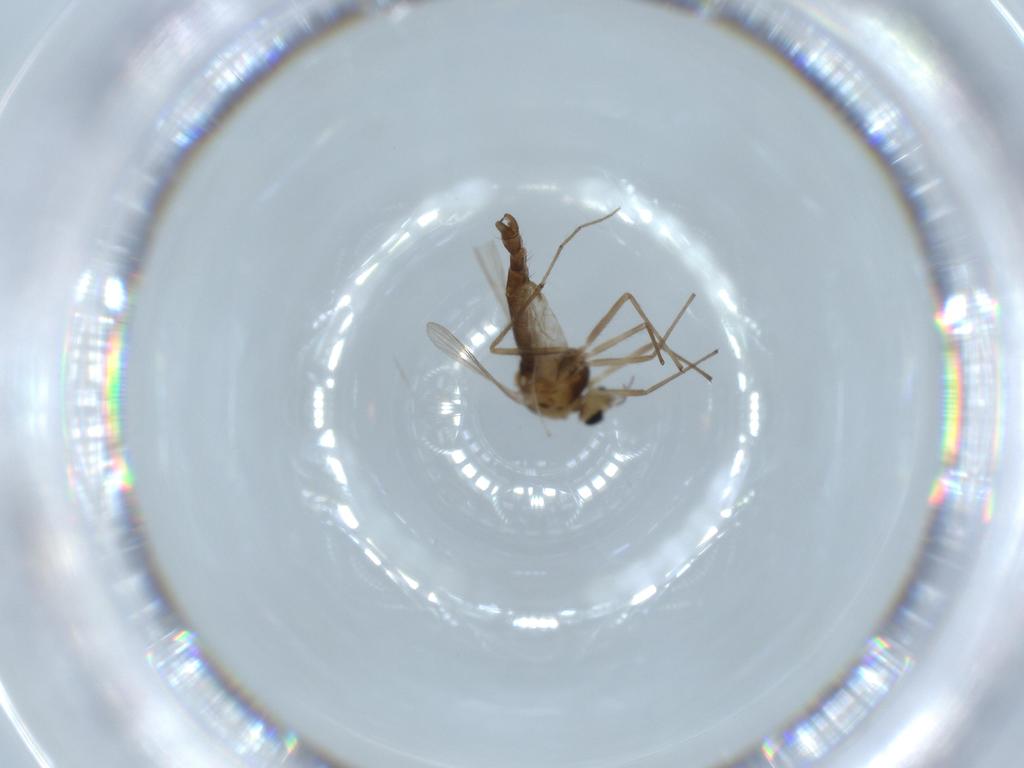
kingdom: Animalia
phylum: Arthropoda
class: Insecta
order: Diptera
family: Chironomidae
